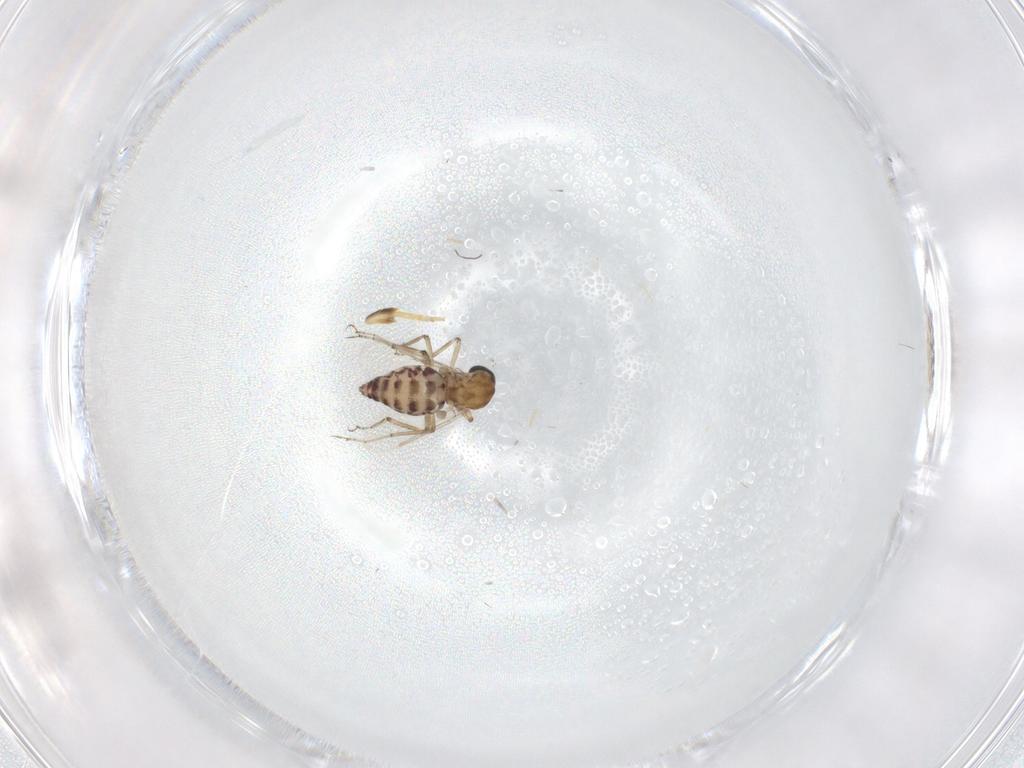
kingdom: Animalia
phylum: Arthropoda
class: Insecta
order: Diptera
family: Ceratopogonidae
